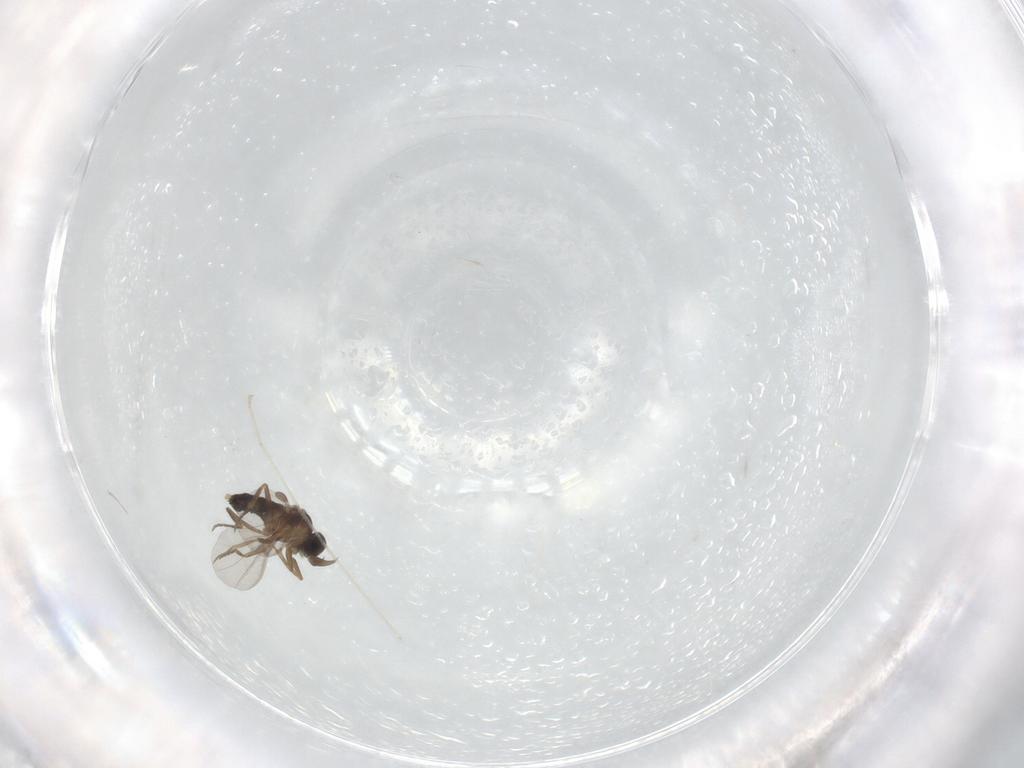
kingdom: Animalia
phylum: Arthropoda
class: Insecta
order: Diptera
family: Phoridae
